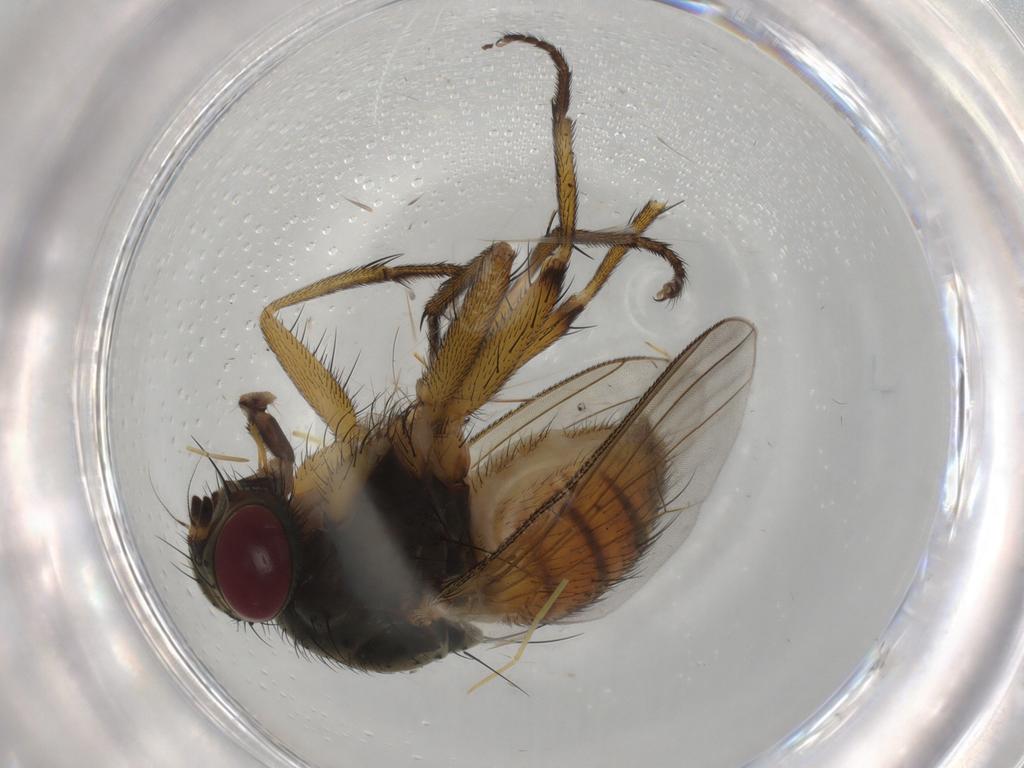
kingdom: Animalia
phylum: Arthropoda
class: Insecta
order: Diptera
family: Muscidae
